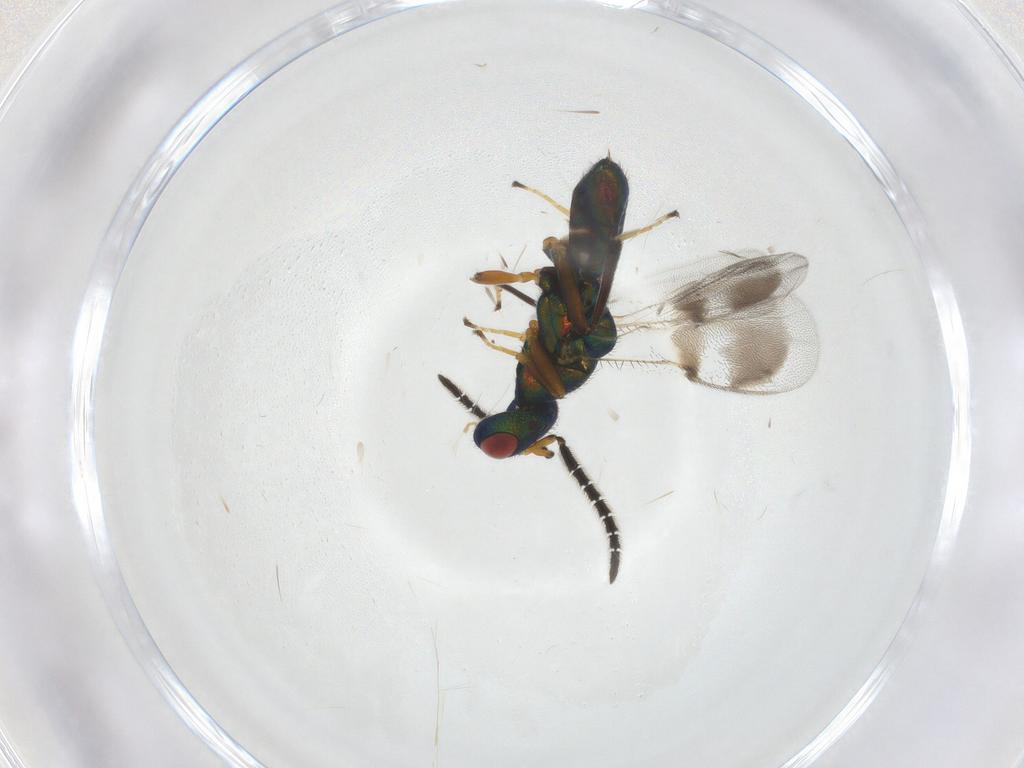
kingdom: Animalia
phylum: Arthropoda
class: Insecta
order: Hymenoptera
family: Pteromalidae
